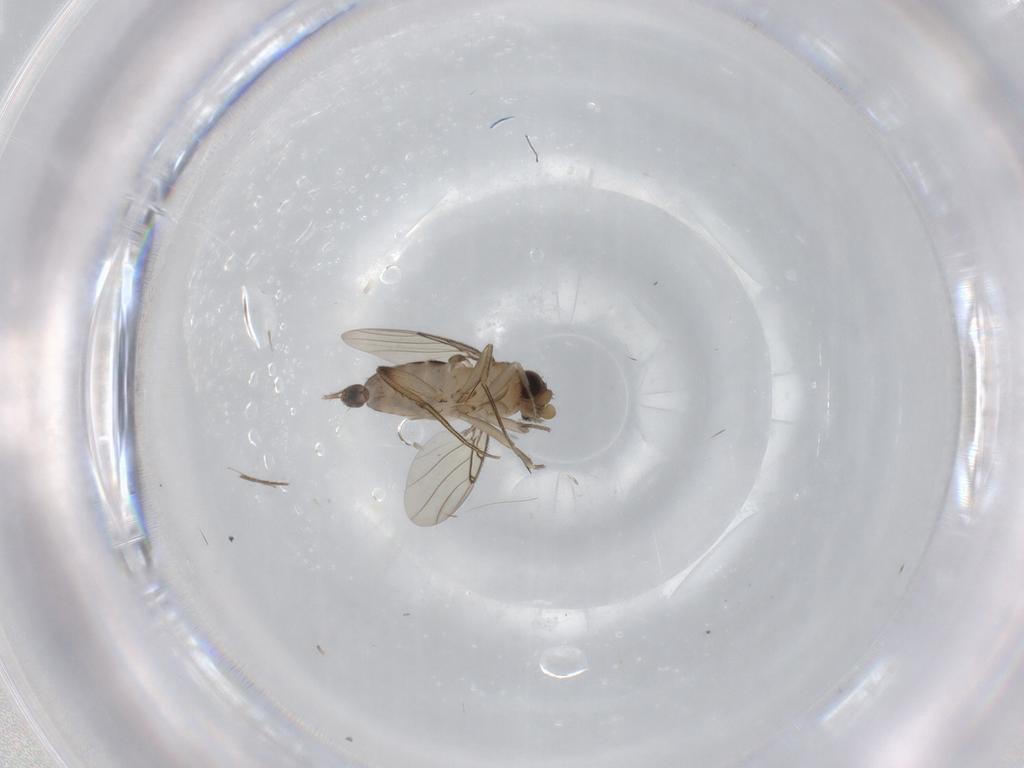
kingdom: Animalia
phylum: Arthropoda
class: Insecta
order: Diptera
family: Phoridae
